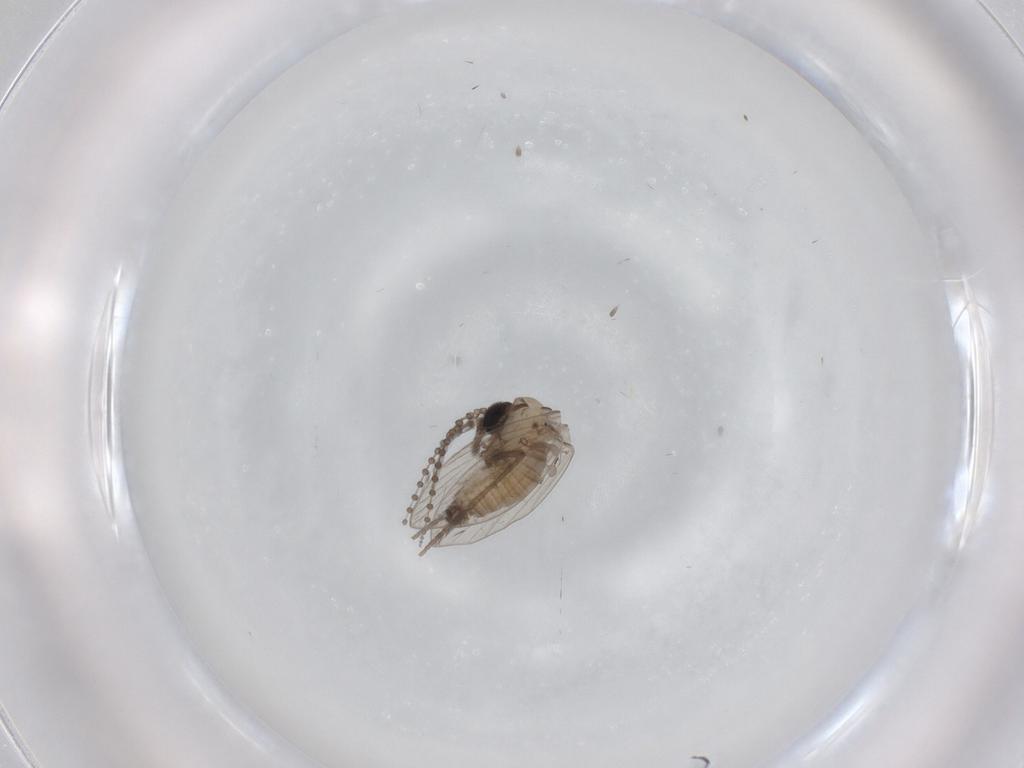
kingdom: Animalia
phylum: Arthropoda
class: Insecta
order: Diptera
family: Psychodidae
